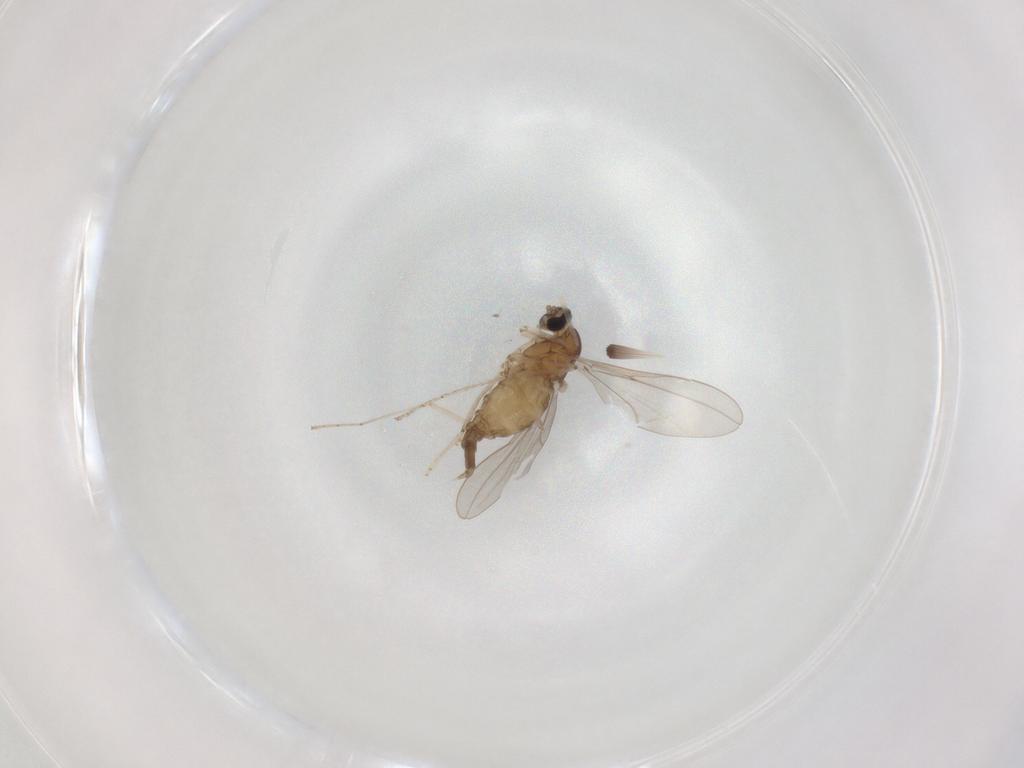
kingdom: Animalia
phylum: Arthropoda
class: Insecta
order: Diptera
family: Cecidomyiidae
